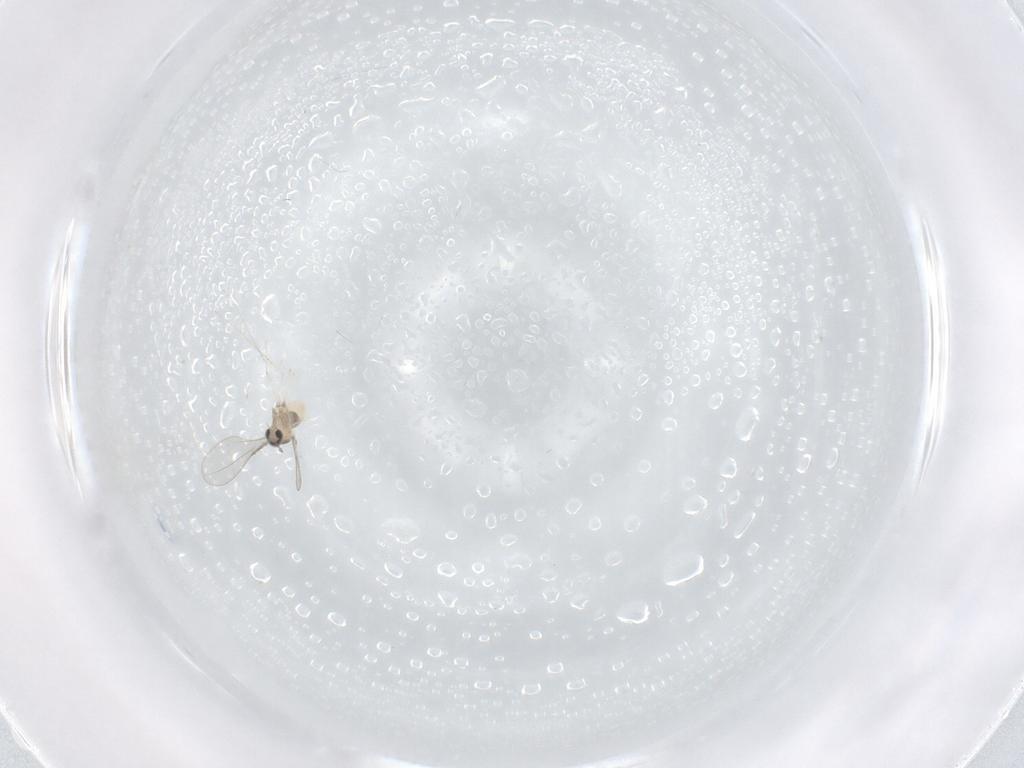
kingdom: Animalia
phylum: Arthropoda
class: Insecta
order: Diptera
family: Cecidomyiidae
